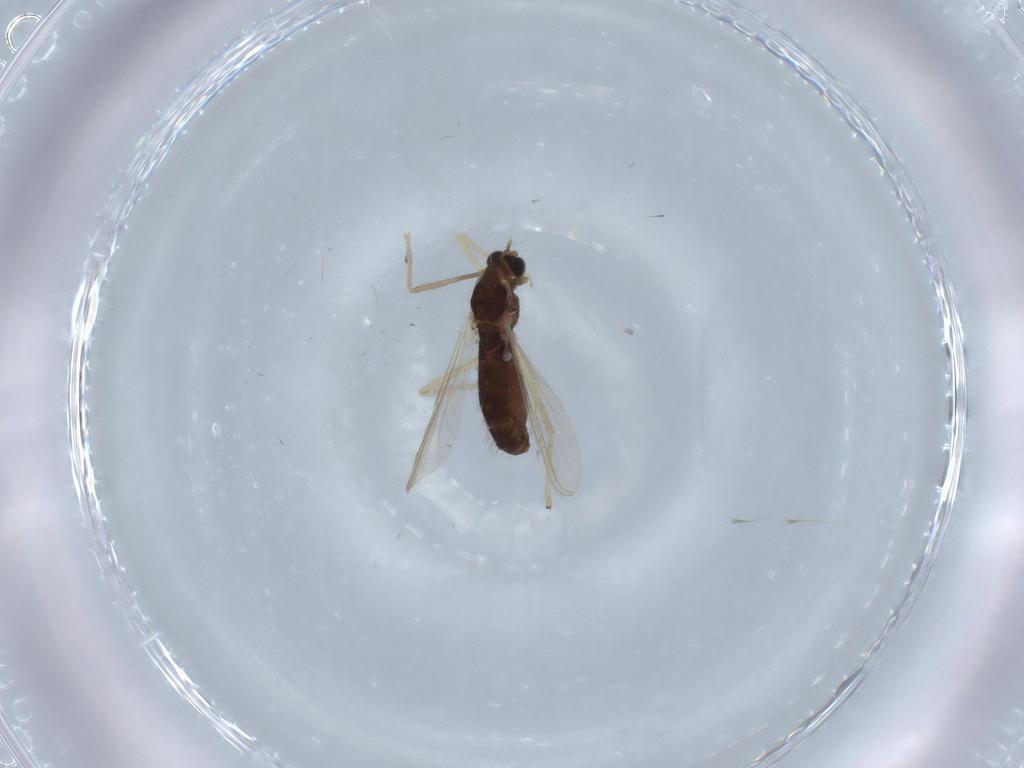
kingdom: Animalia
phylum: Arthropoda
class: Insecta
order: Diptera
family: Chironomidae
